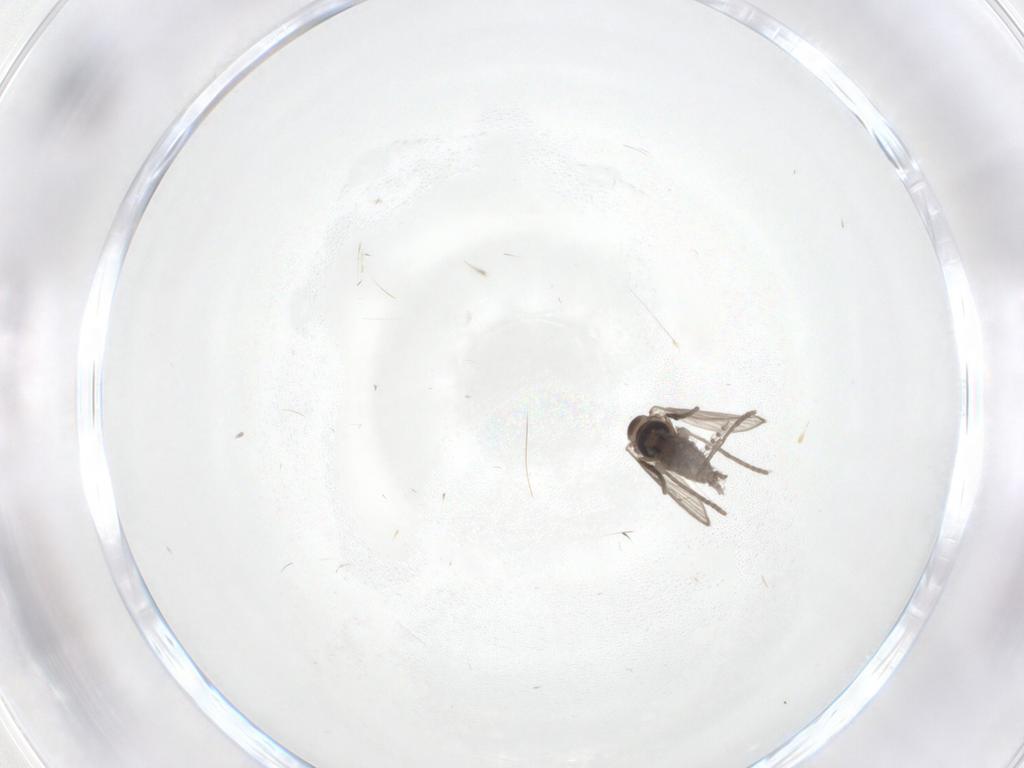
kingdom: Animalia
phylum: Arthropoda
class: Insecta
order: Diptera
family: Psychodidae
